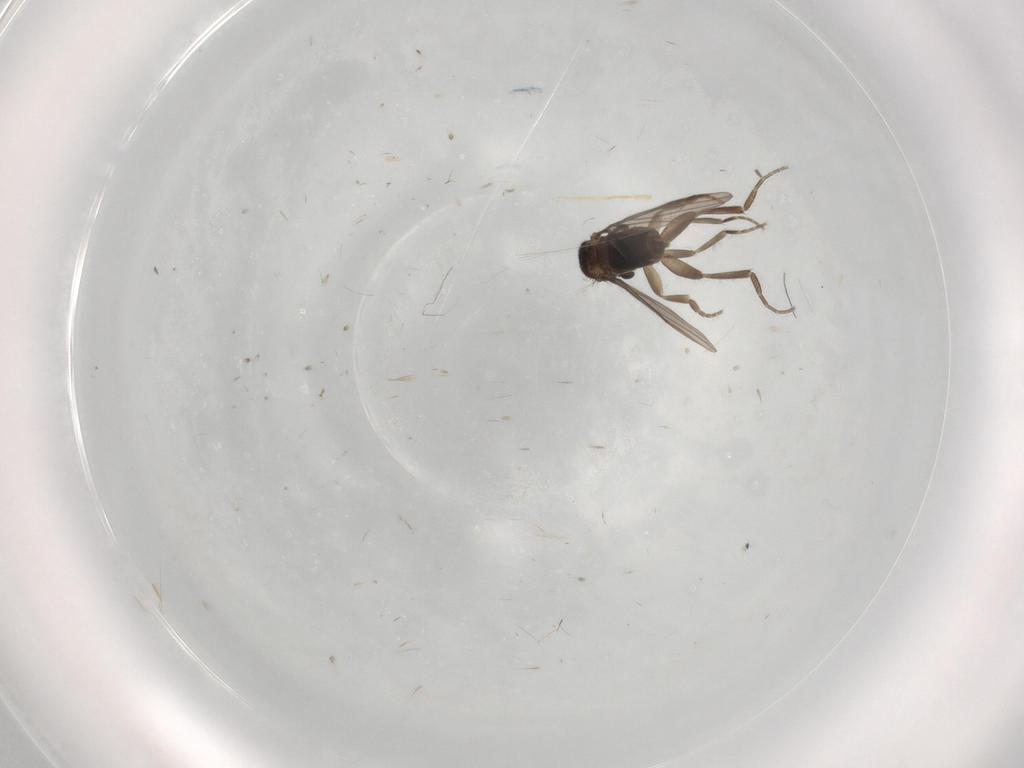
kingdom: Animalia
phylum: Arthropoda
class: Insecta
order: Diptera
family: Phoridae
